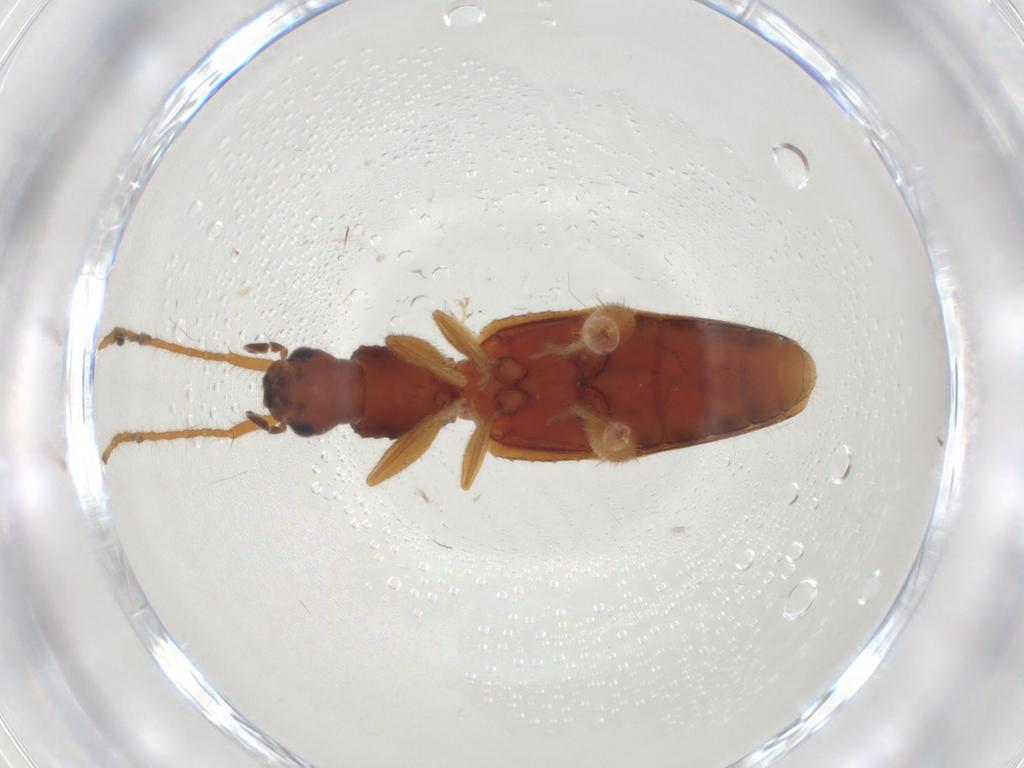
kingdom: Animalia
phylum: Arthropoda
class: Insecta
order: Coleoptera
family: Silvanidae
